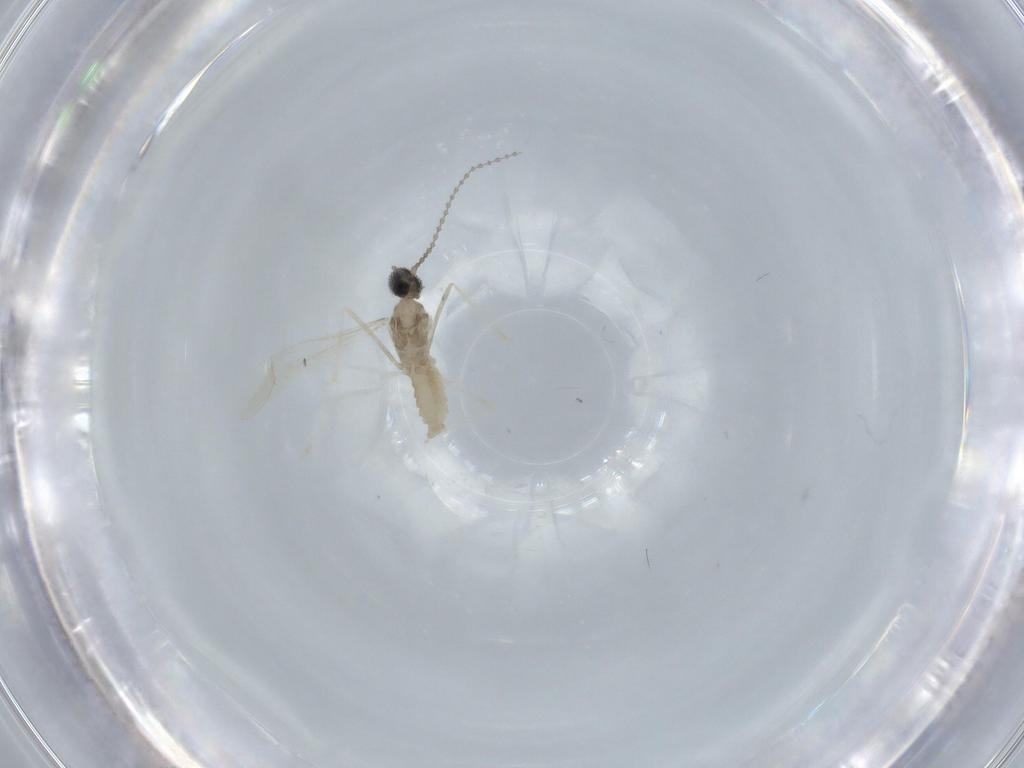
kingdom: Animalia
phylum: Arthropoda
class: Insecta
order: Diptera
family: Cecidomyiidae
